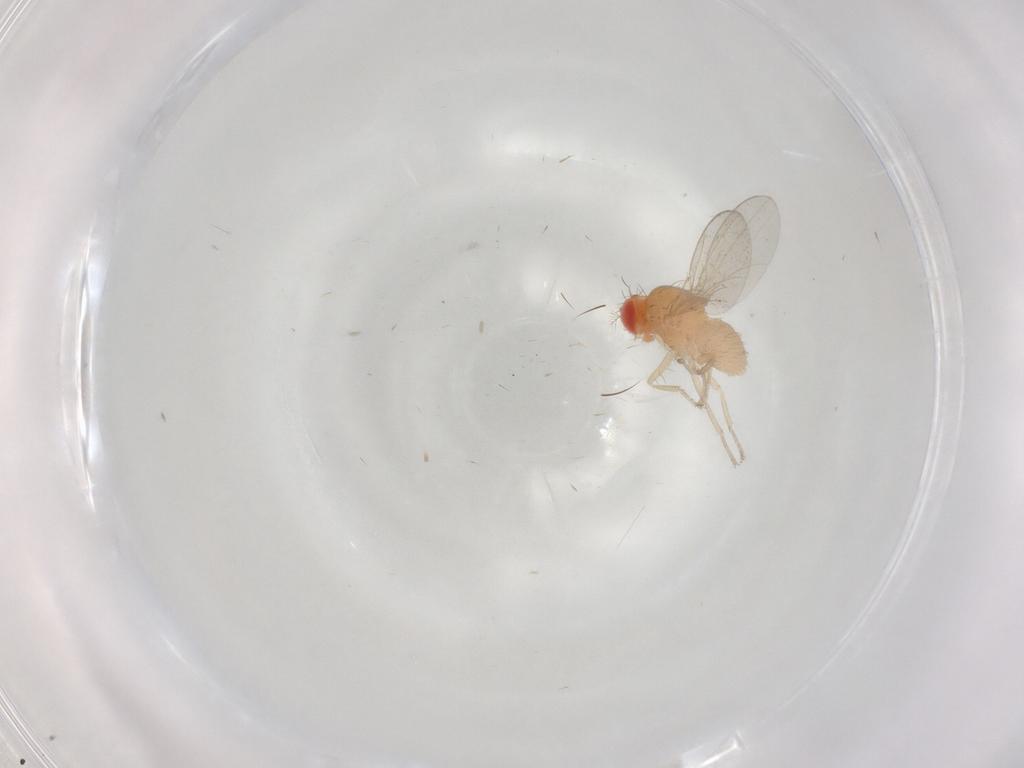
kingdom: Animalia
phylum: Arthropoda
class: Insecta
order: Diptera
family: Drosophilidae
